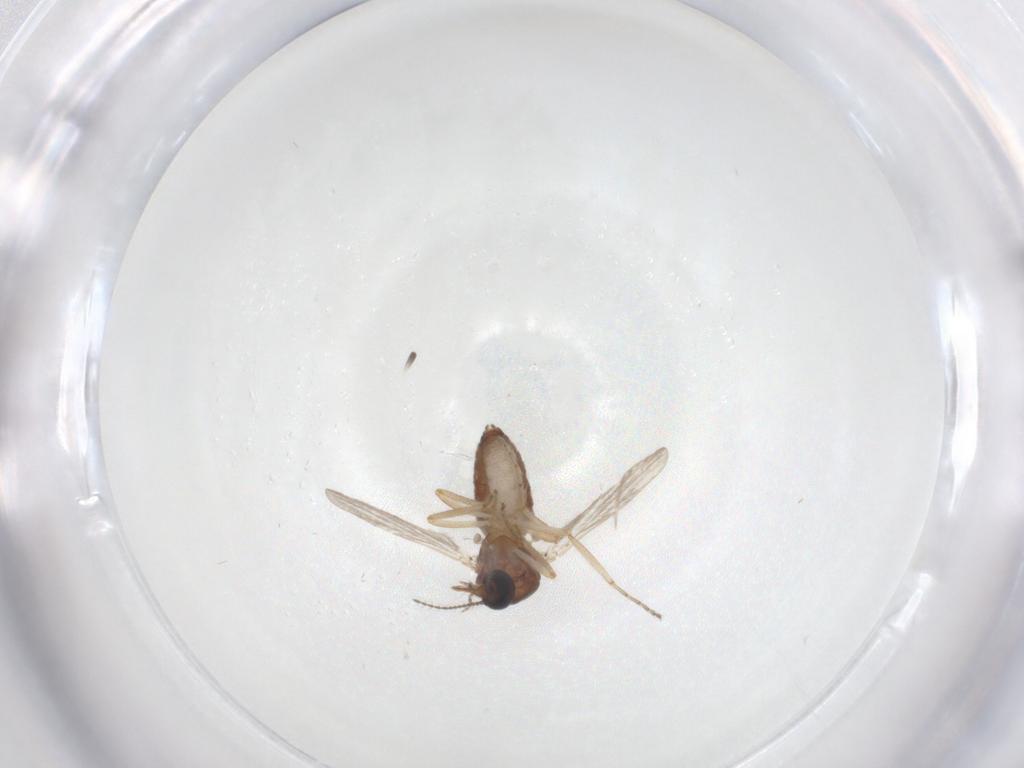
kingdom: Animalia
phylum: Arthropoda
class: Insecta
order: Diptera
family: Ceratopogonidae
